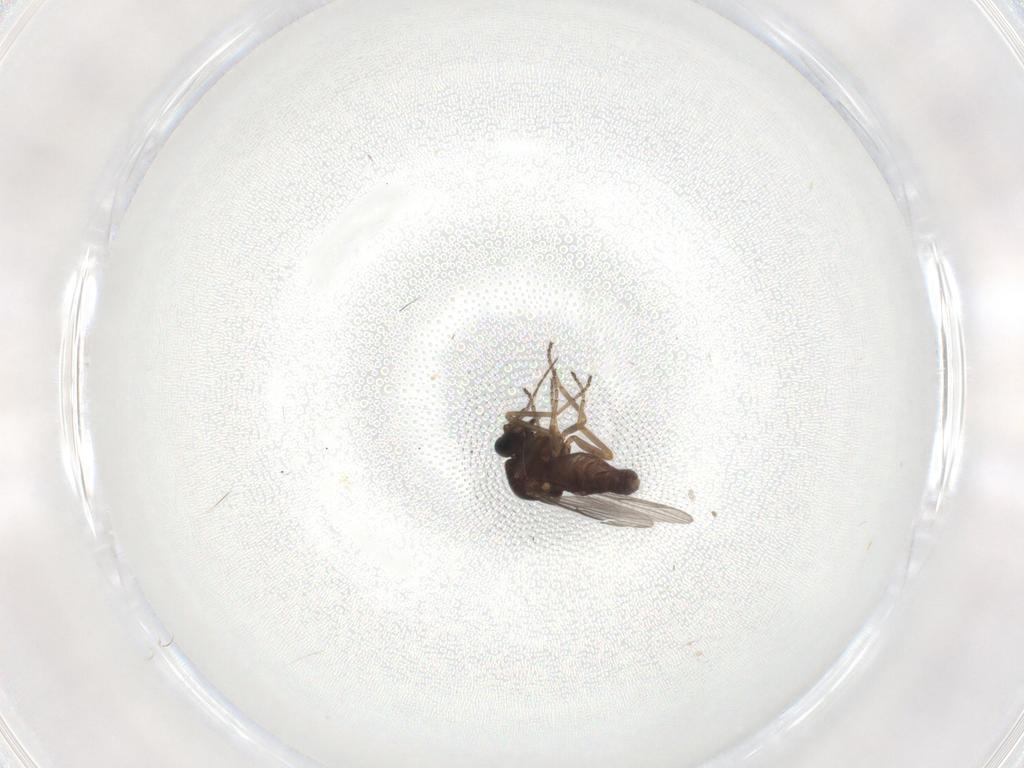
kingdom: Animalia
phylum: Arthropoda
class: Insecta
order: Diptera
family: Ceratopogonidae
